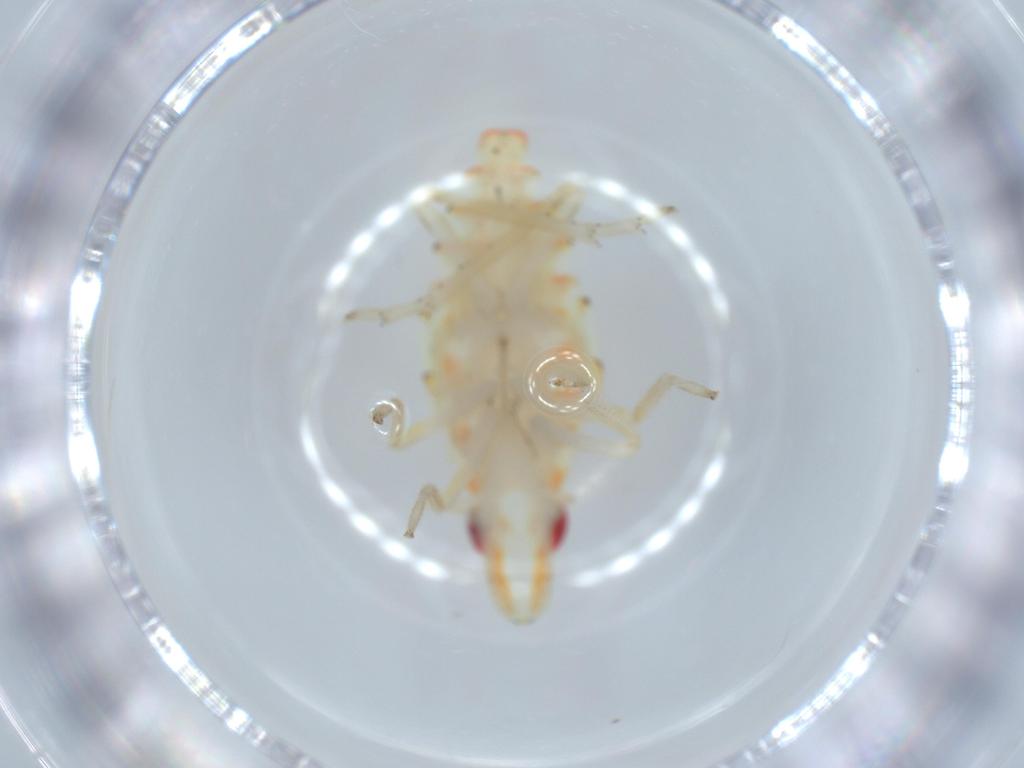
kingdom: Animalia
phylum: Arthropoda
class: Insecta
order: Hemiptera
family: Tropiduchidae
